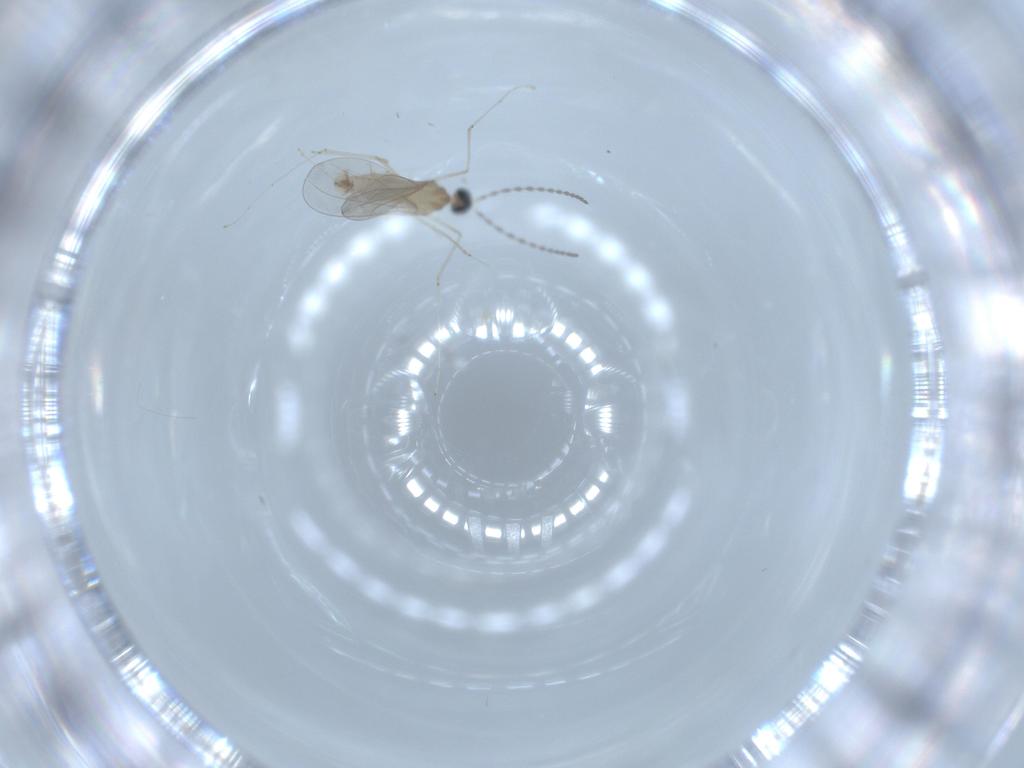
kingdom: Animalia
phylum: Arthropoda
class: Insecta
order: Diptera
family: Cecidomyiidae
